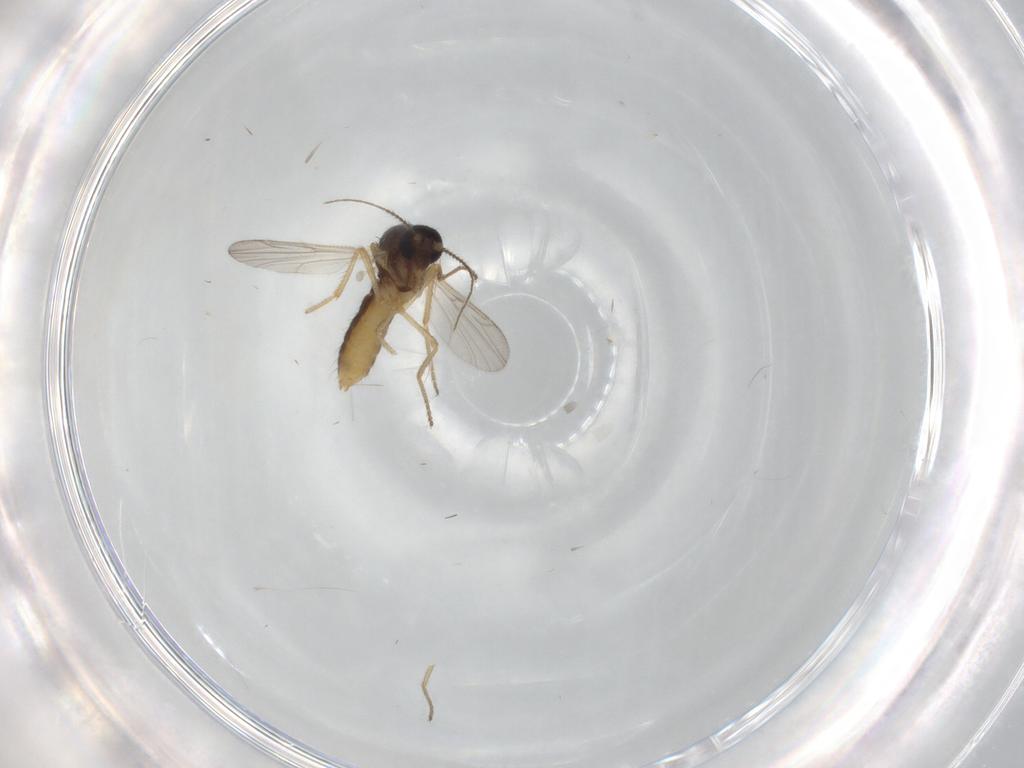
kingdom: Animalia
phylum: Arthropoda
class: Insecta
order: Diptera
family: Ceratopogonidae
